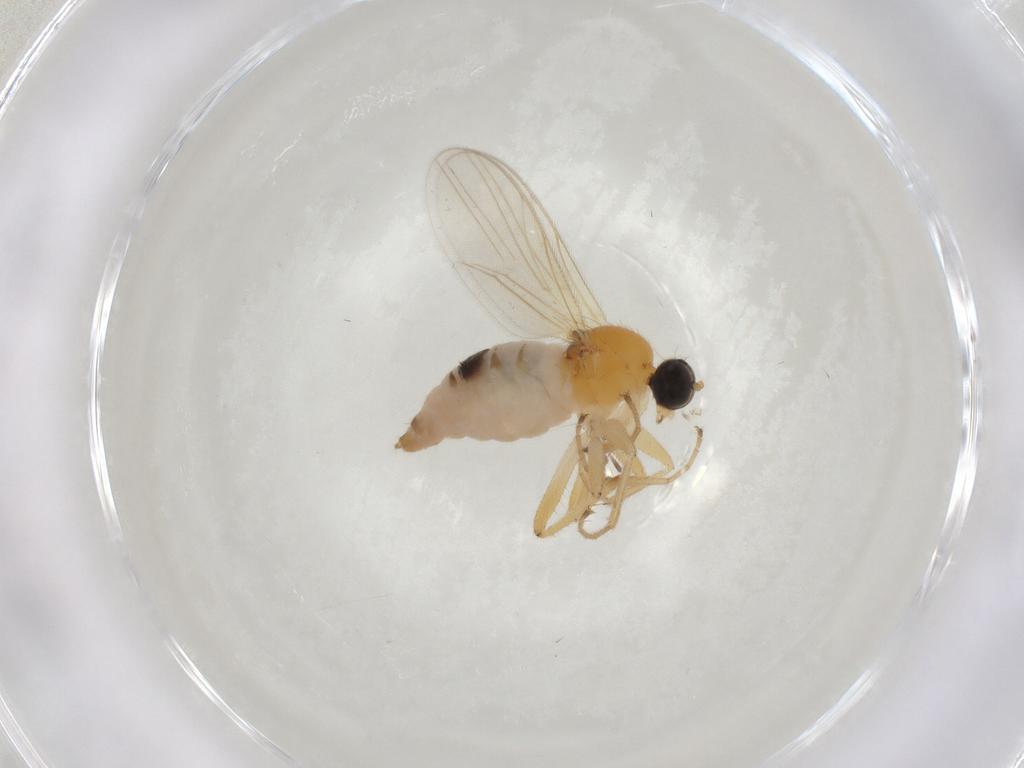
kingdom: Animalia
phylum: Arthropoda
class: Insecta
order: Diptera
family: Hybotidae
